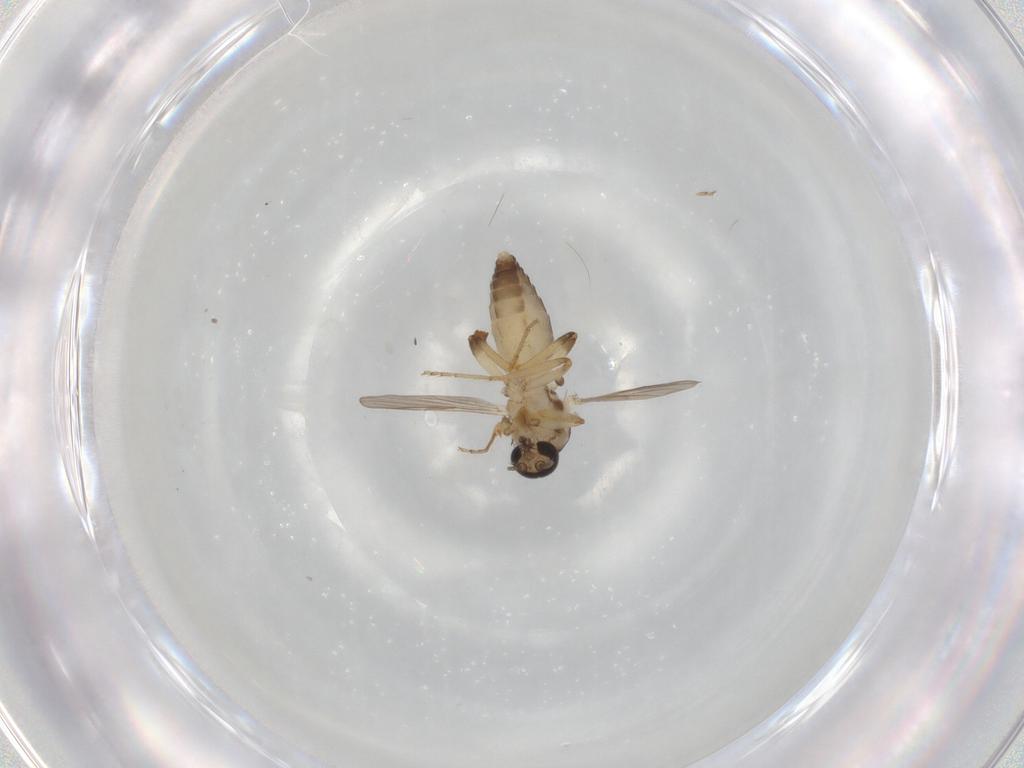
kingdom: Animalia
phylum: Arthropoda
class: Insecta
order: Diptera
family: Ceratopogonidae
